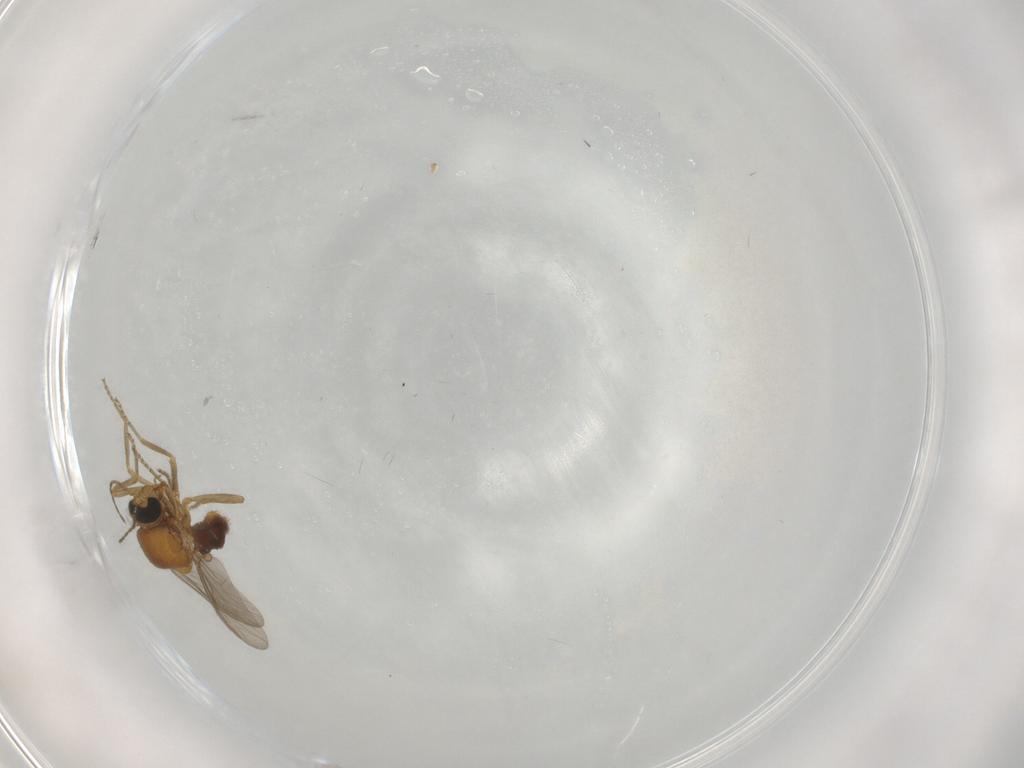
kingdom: Animalia
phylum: Arthropoda
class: Insecta
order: Diptera
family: Ceratopogonidae
